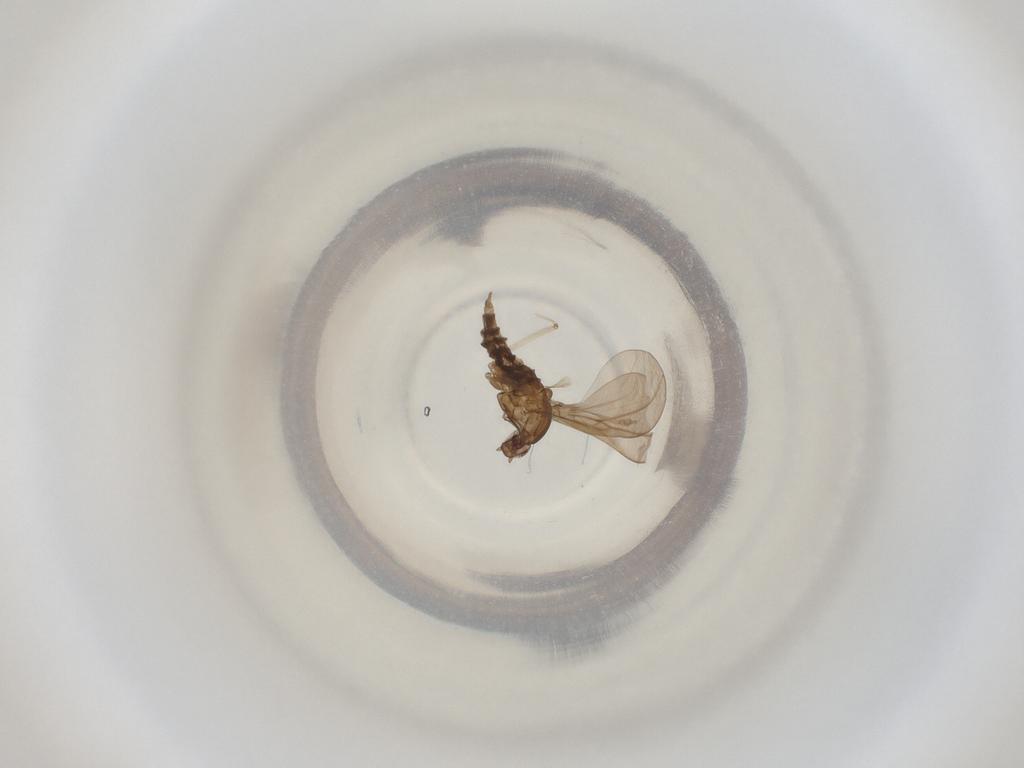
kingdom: Animalia
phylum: Arthropoda
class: Insecta
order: Diptera
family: Cecidomyiidae
